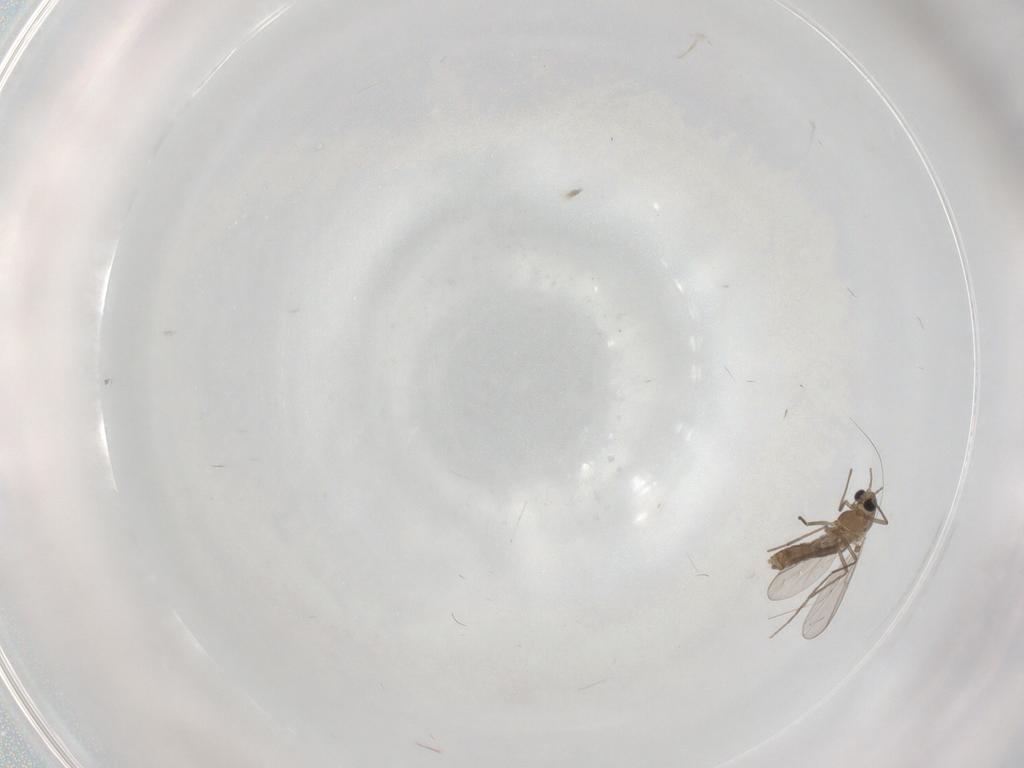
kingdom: Animalia
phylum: Arthropoda
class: Insecta
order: Diptera
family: Chironomidae
